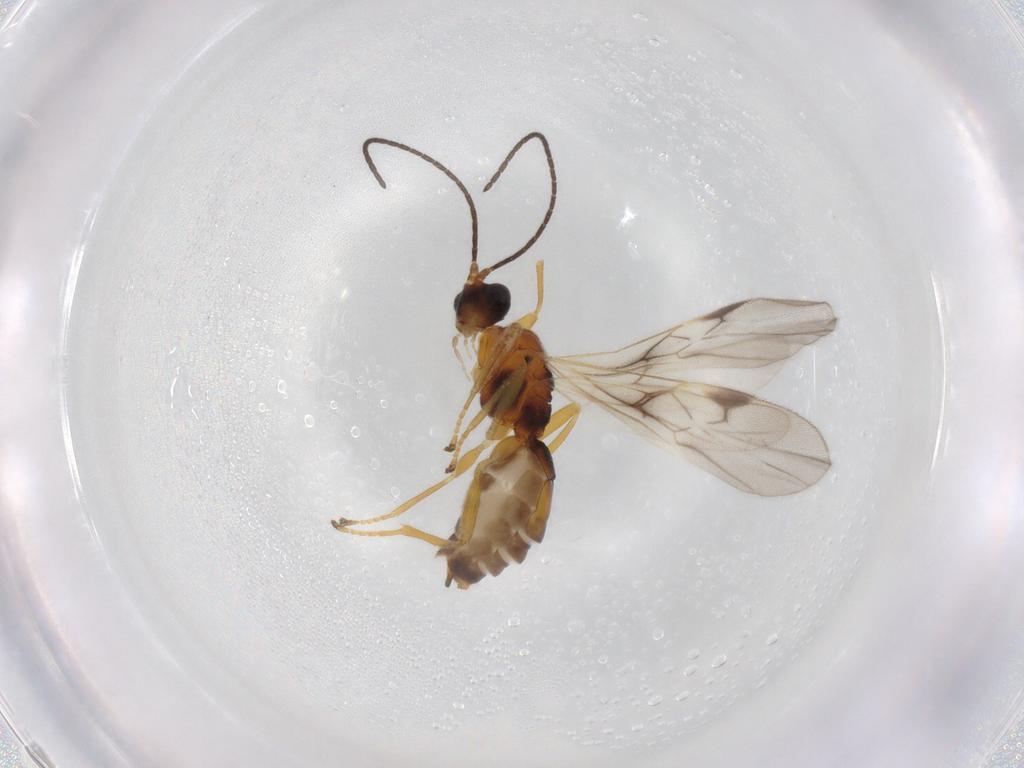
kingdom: Animalia
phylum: Arthropoda
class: Insecta
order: Hymenoptera
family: Braconidae
